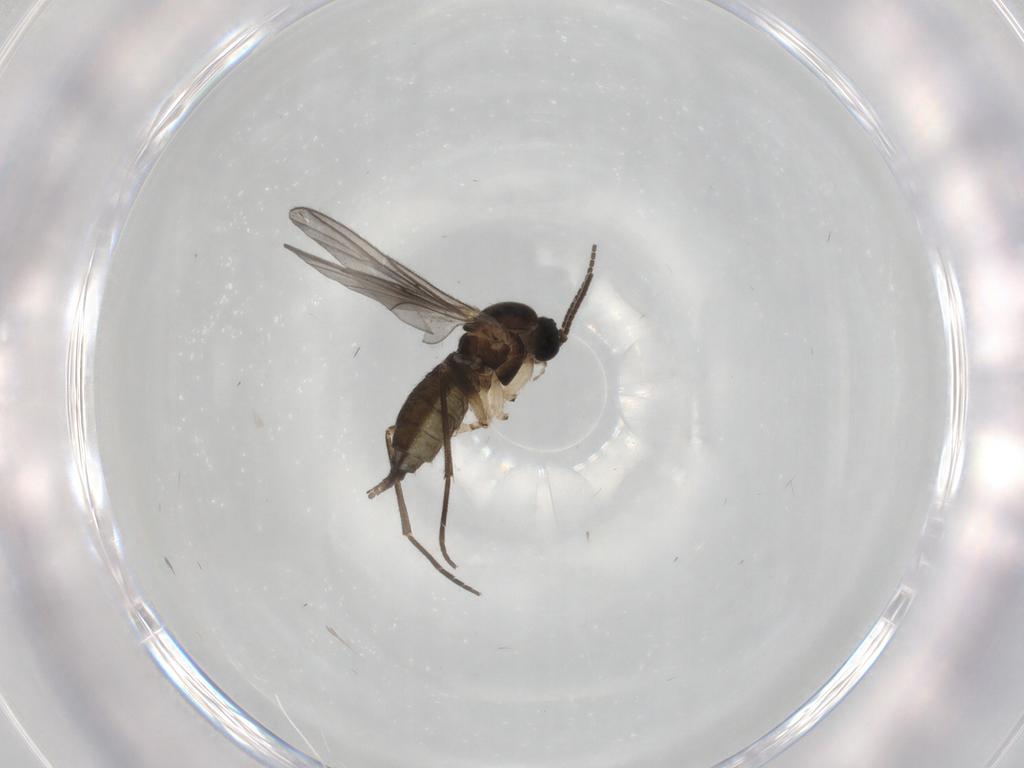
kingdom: Animalia
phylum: Arthropoda
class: Insecta
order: Diptera
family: Sciaridae
